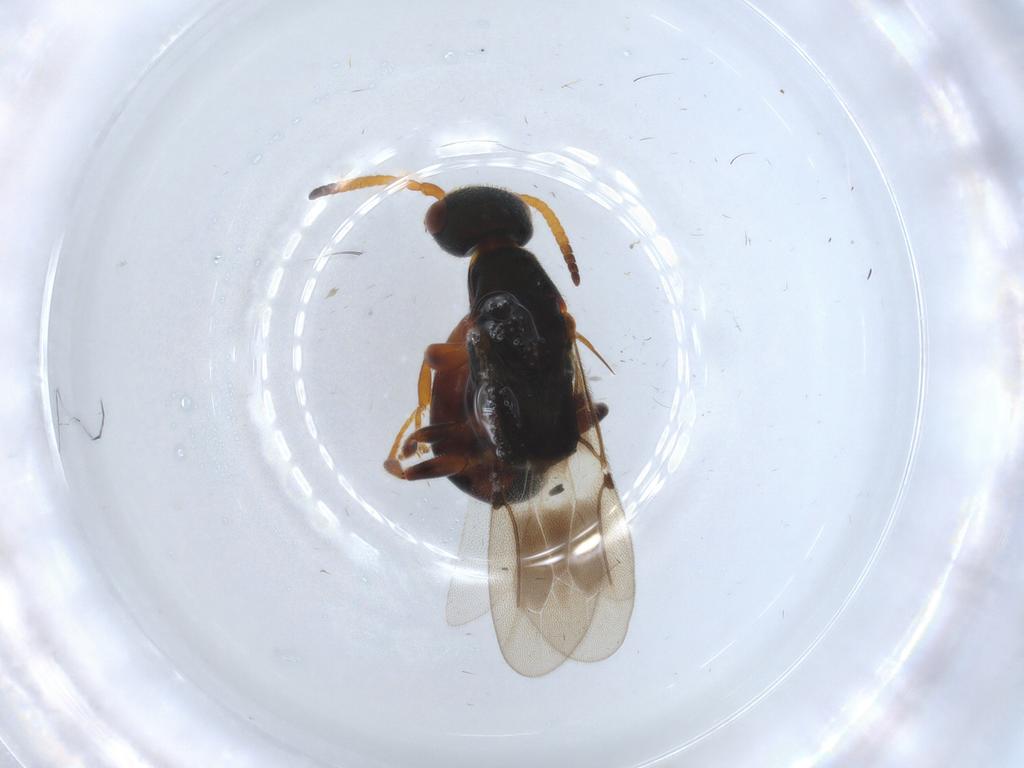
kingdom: Animalia
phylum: Arthropoda
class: Insecta
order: Hymenoptera
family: Bethylidae
